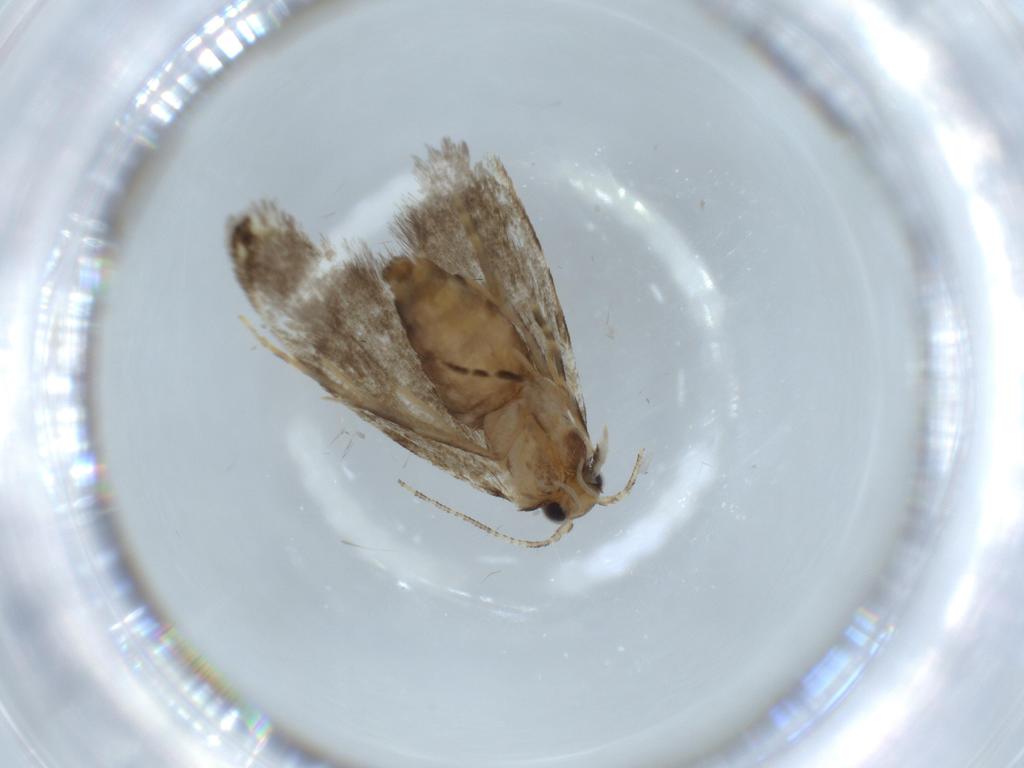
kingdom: Animalia
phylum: Arthropoda
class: Insecta
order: Lepidoptera
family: Tineidae
